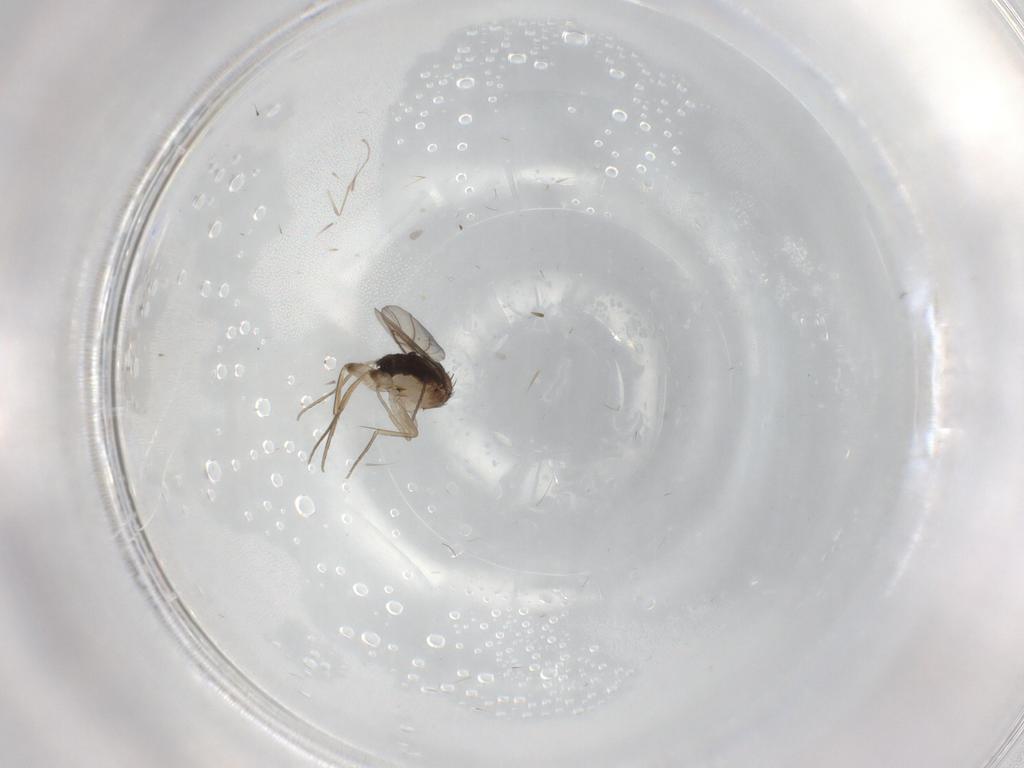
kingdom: Animalia
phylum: Arthropoda
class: Insecta
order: Diptera
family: Cecidomyiidae
